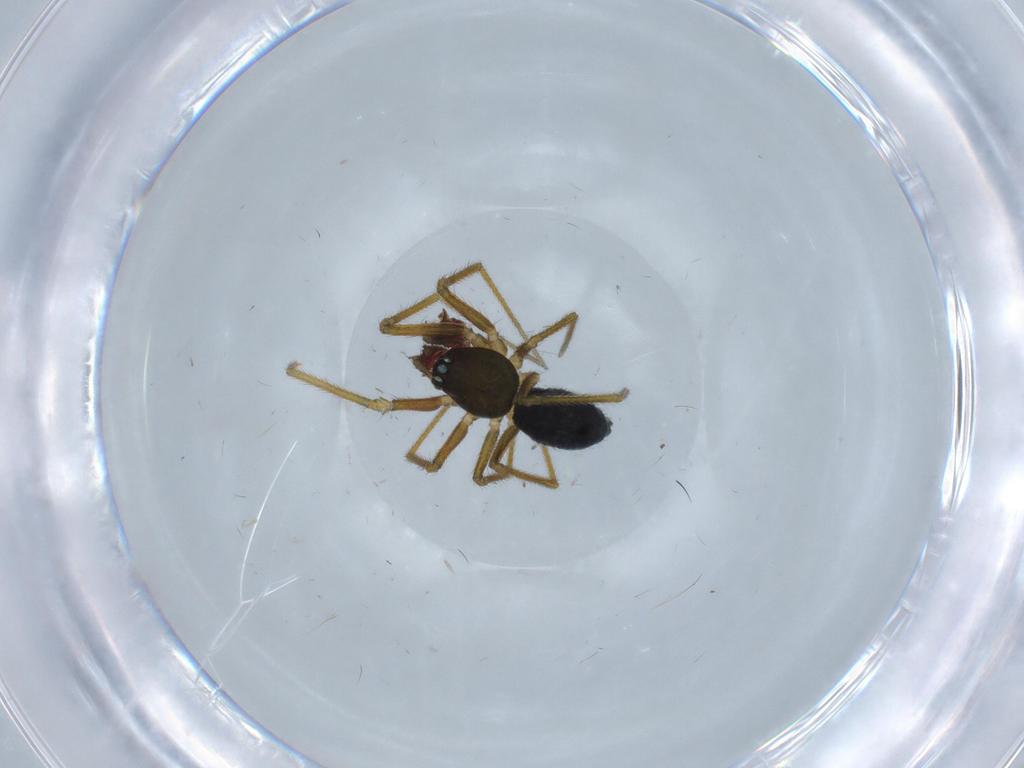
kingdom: Animalia
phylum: Arthropoda
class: Arachnida
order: Araneae
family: Linyphiidae
